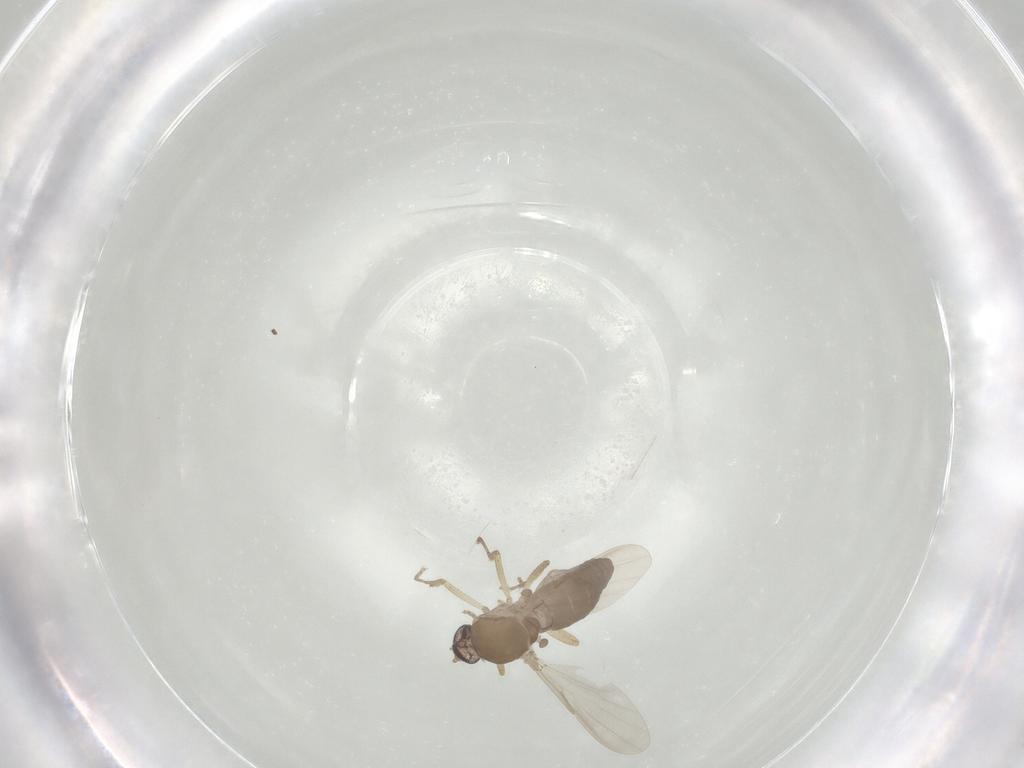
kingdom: Animalia
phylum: Arthropoda
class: Insecta
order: Diptera
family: Ceratopogonidae
